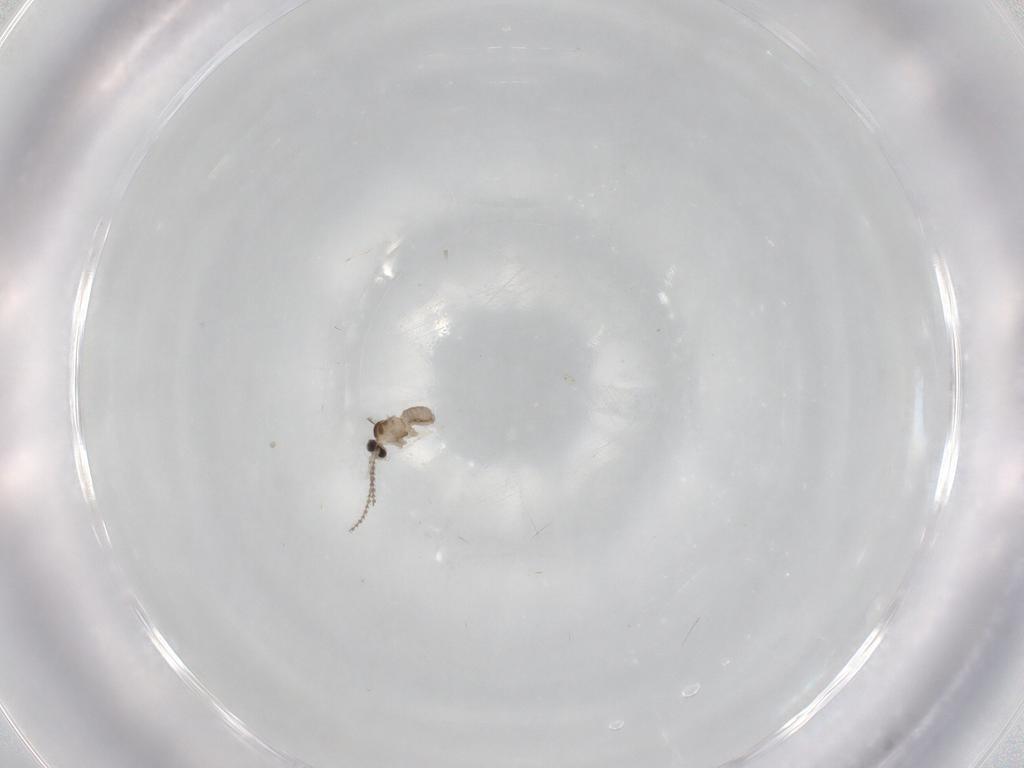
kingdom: Animalia
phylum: Arthropoda
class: Insecta
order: Diptera
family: Cecidomyiidae
